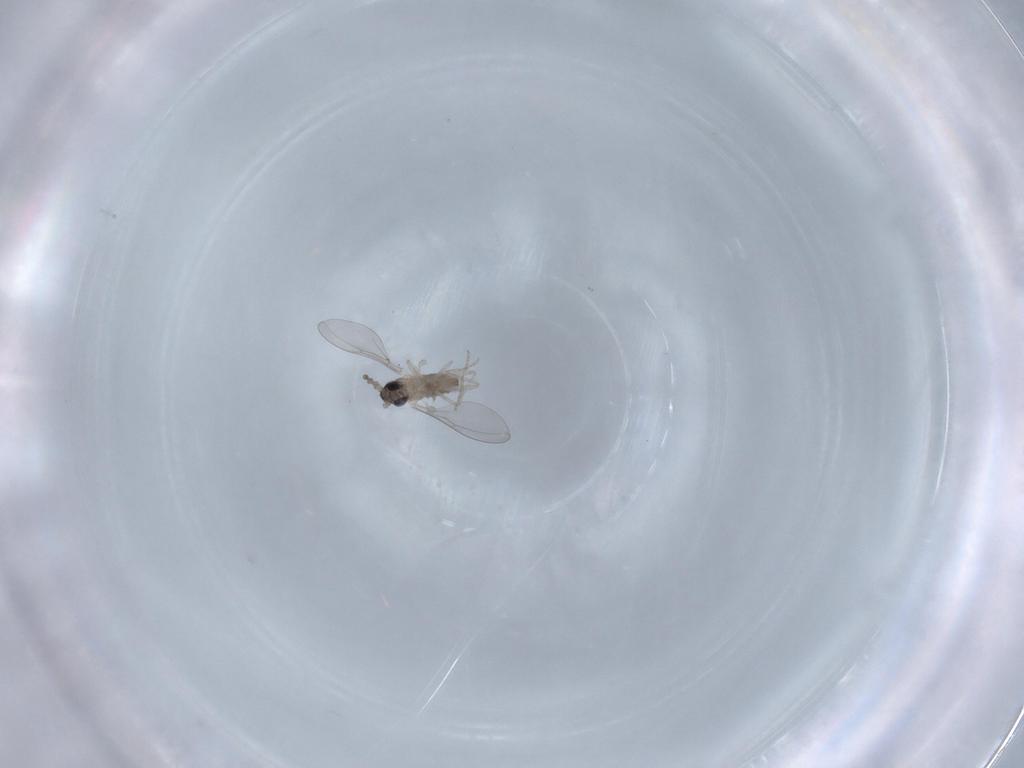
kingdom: Animalia
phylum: Arthropoda
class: Insecta
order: Diptera
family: Cecidomyiidae
